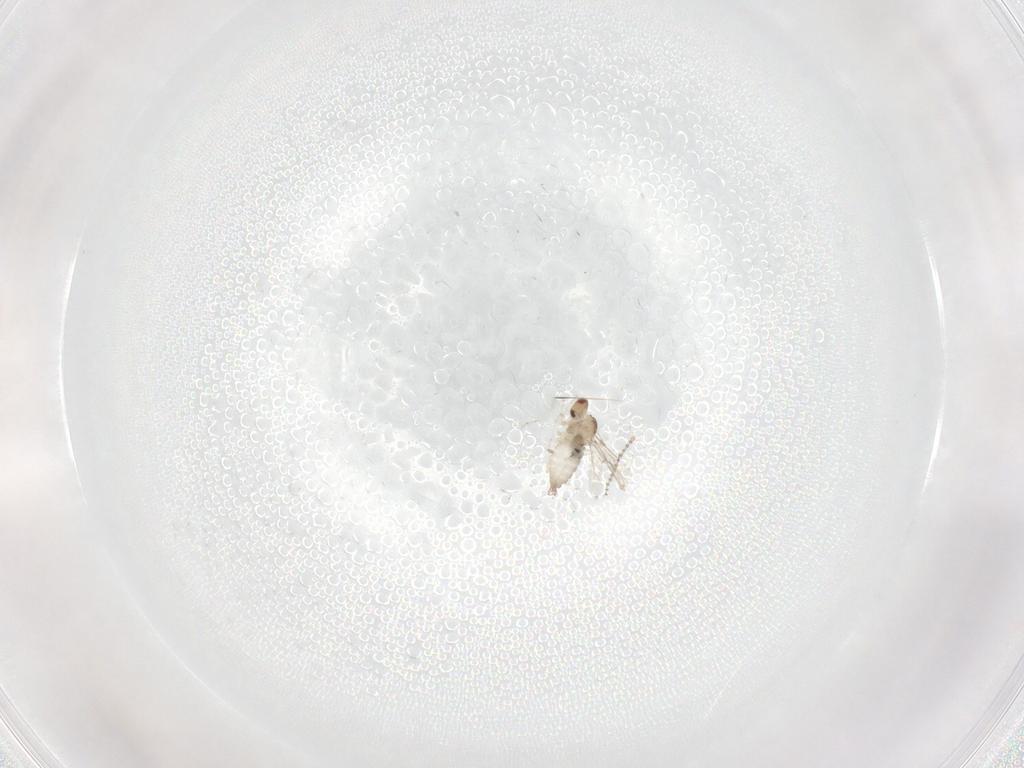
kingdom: Animalia
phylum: Arthropoda
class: Insecta
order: Diptera
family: Cecidomyiidae
